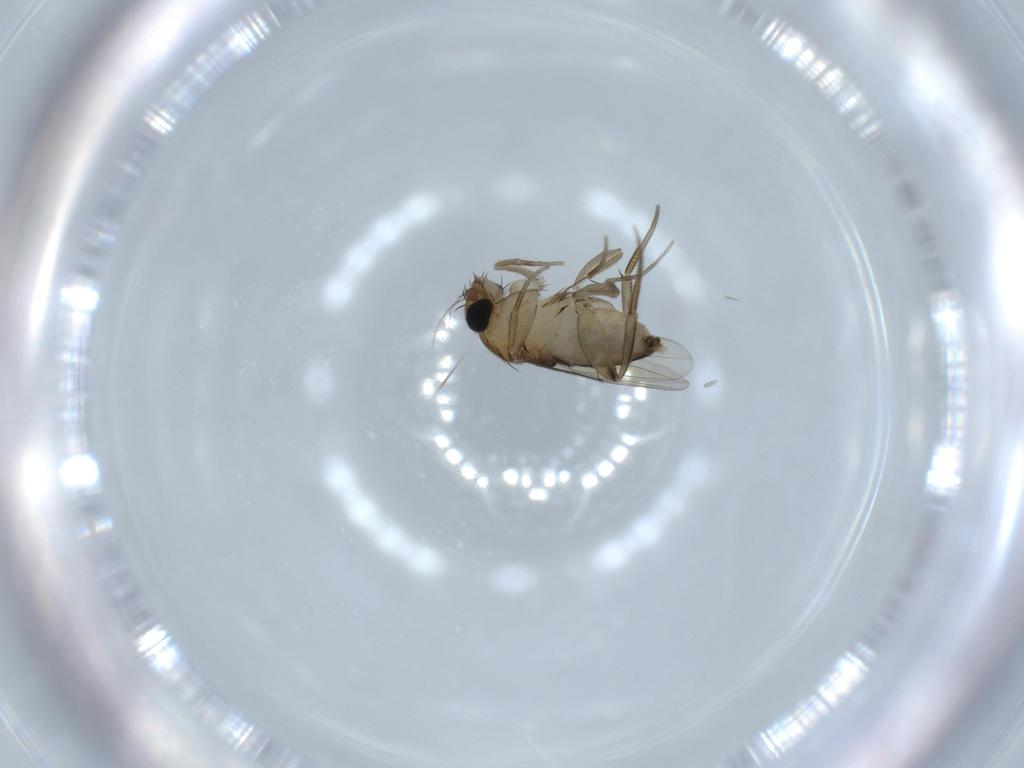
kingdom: Animalia
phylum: Arthropoda
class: Insecta
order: Diptera
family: Phoridae
